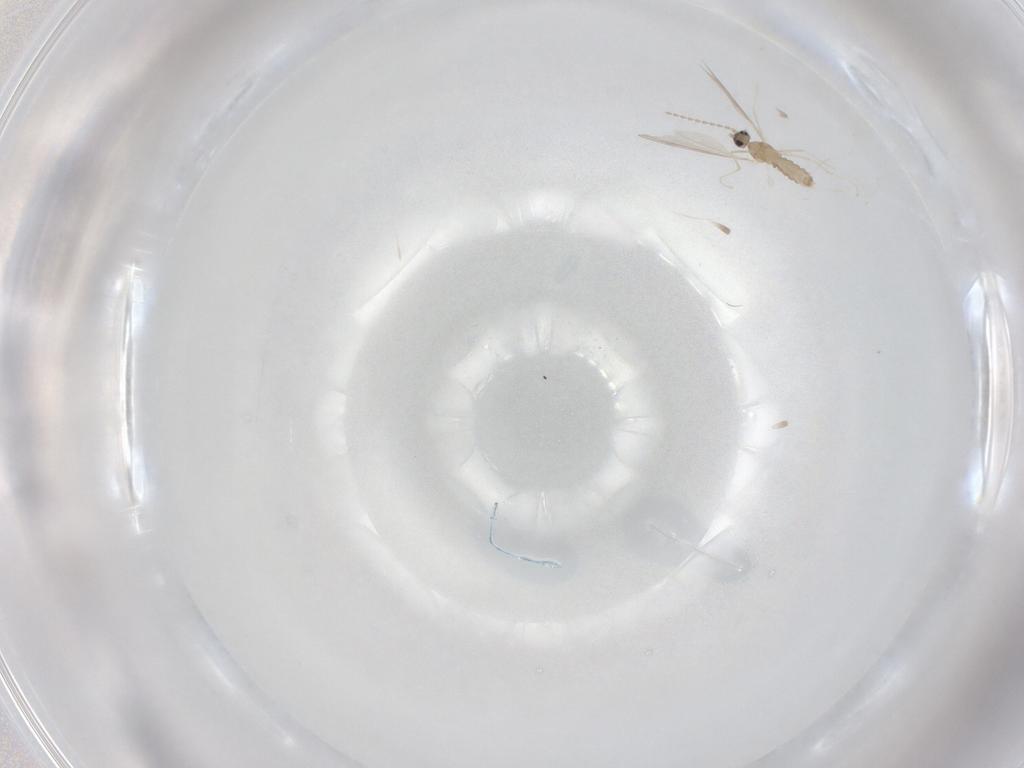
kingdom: Animalia
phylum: Arthropoda
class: Insecta
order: Diptera
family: Cecidomyiidae
